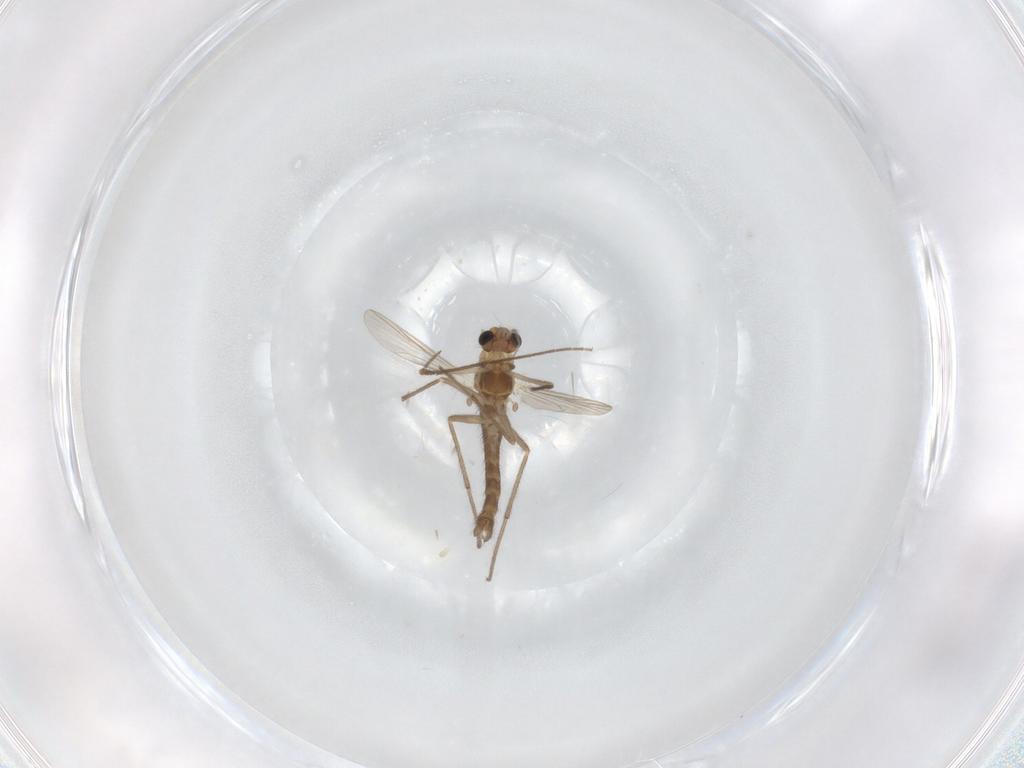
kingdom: Animalia
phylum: Arthropoda
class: Insecta
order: Diptera
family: Chironomidae
